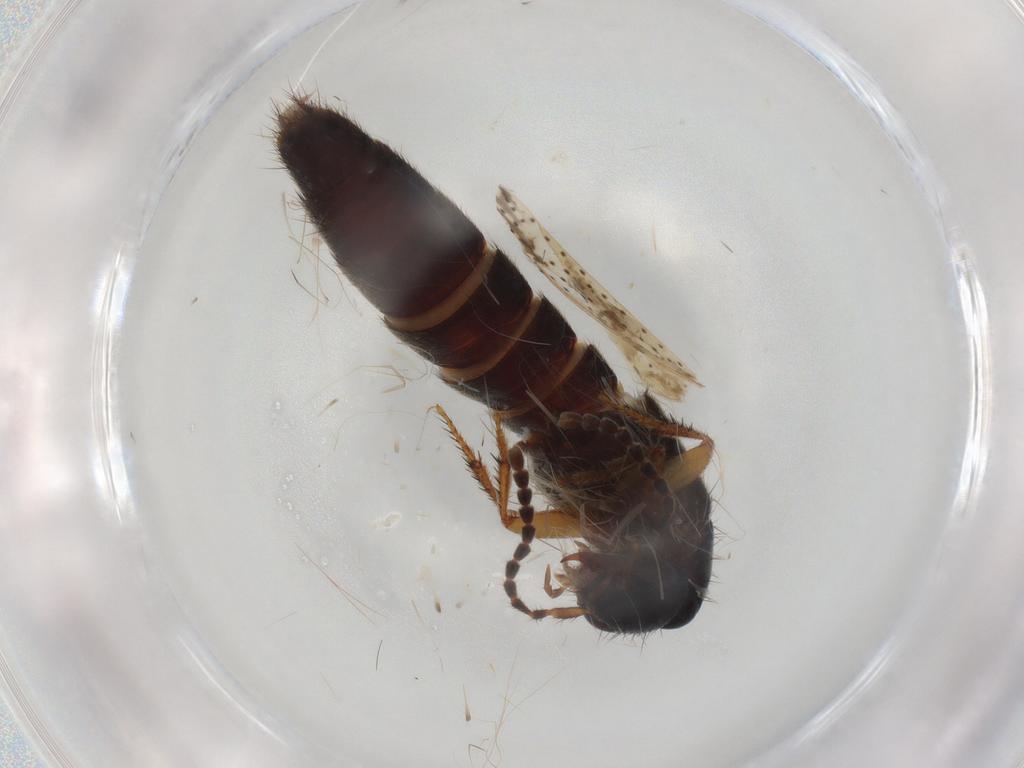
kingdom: Animalia
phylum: Arthropoda
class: Insecta
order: Coleoptera
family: Staphylinidae
